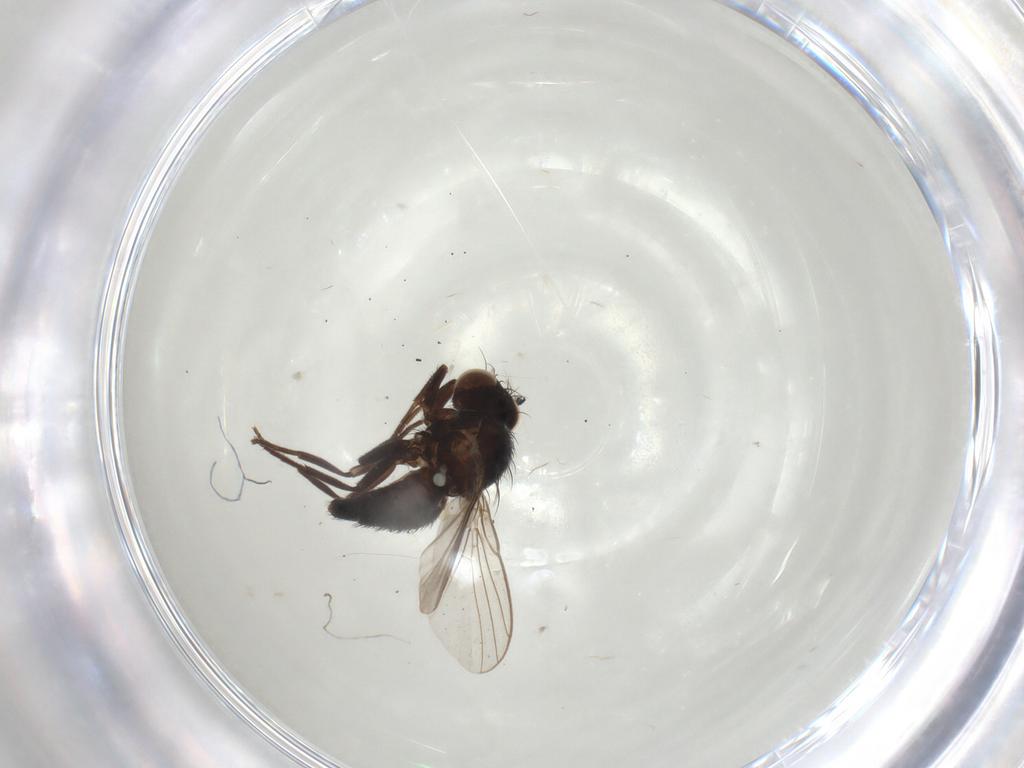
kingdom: Animalia
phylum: Arthropoda
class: Insecta
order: Diptera
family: Agromyzidae
